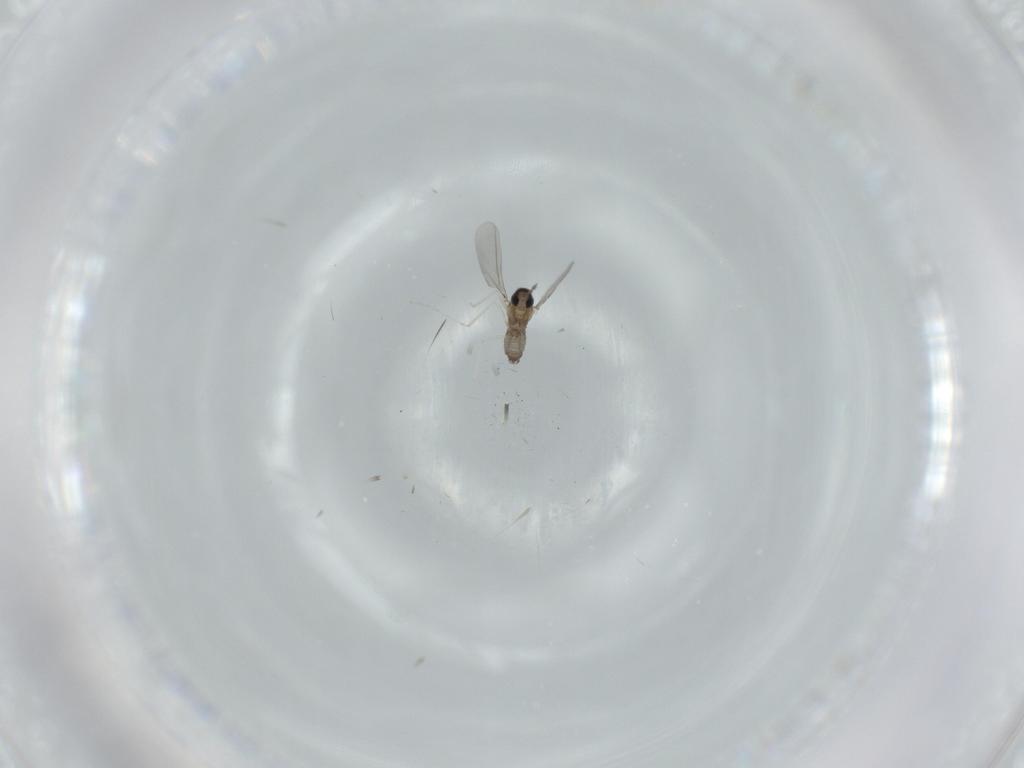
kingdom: Animalia
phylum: Arthropoda
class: Insecta
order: Diptera
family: Cecidomyiidae
